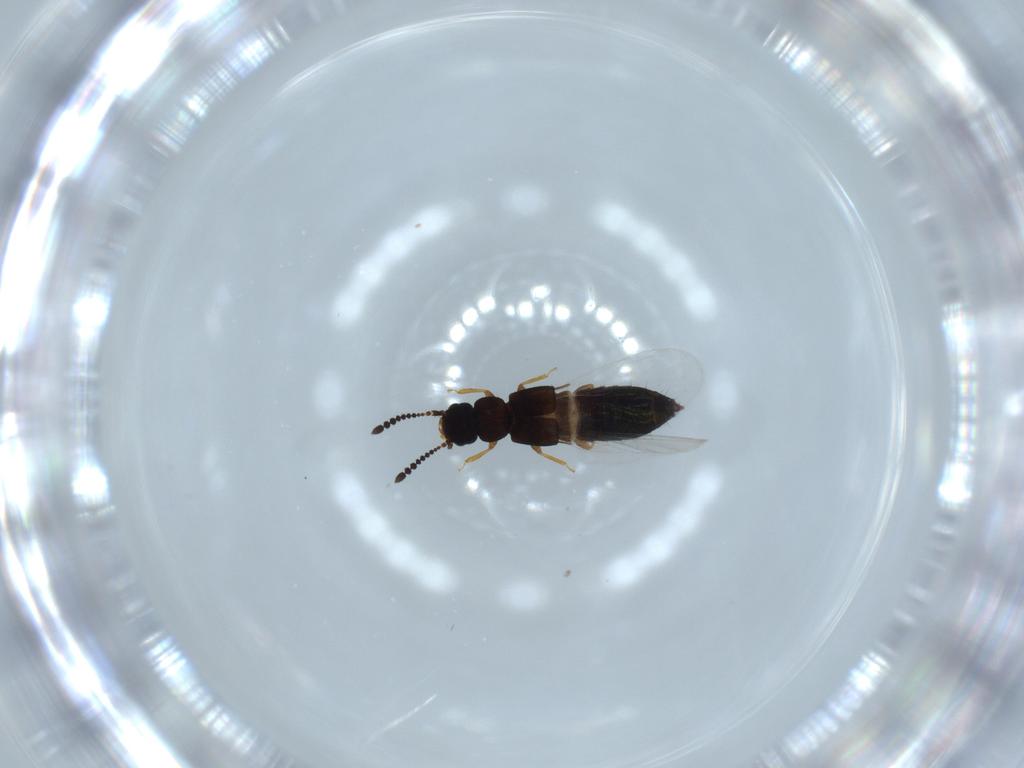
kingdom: Animalia
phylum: Arthropoda
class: Insecta
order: Coleoptera
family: Staphylinidae
